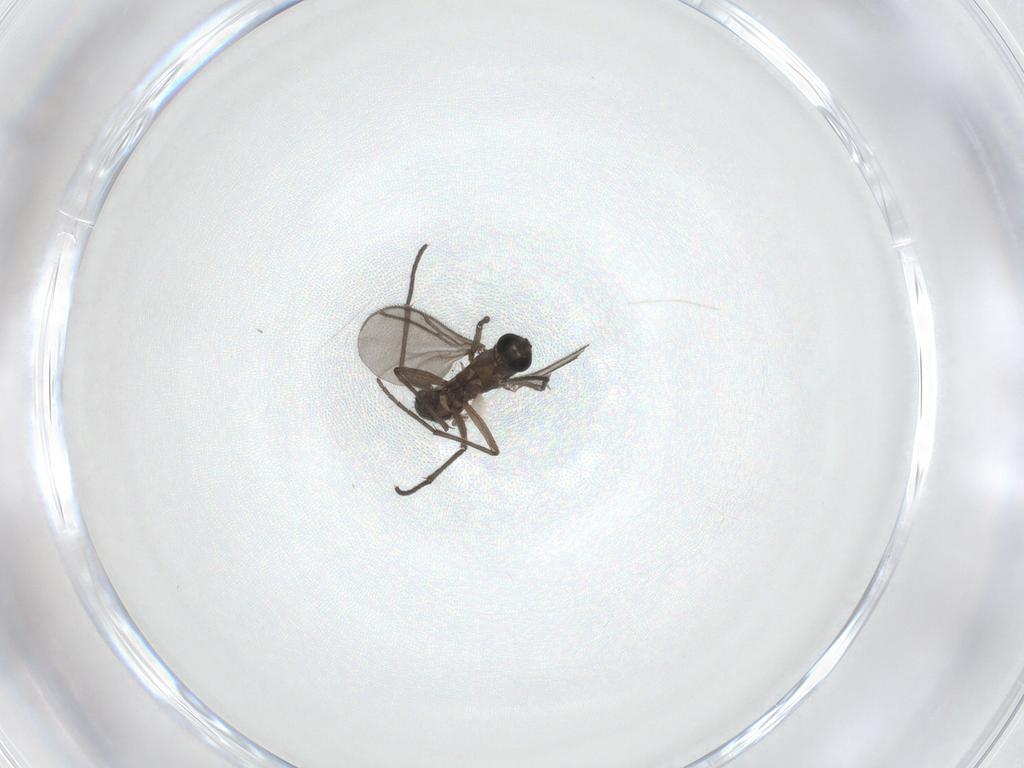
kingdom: Animalia
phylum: Arthropoda
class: Insecta
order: Diptera
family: Sciaridae
